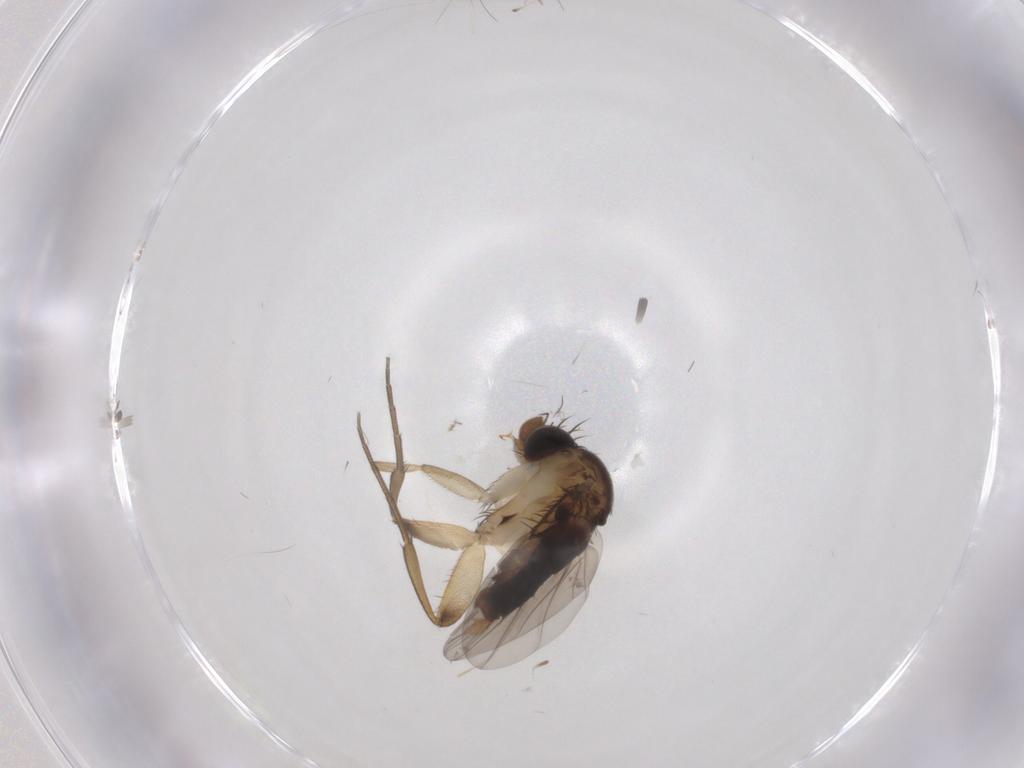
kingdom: Animalia
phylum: Arthropoda
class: Insecta
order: Diptera
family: Phoridae
